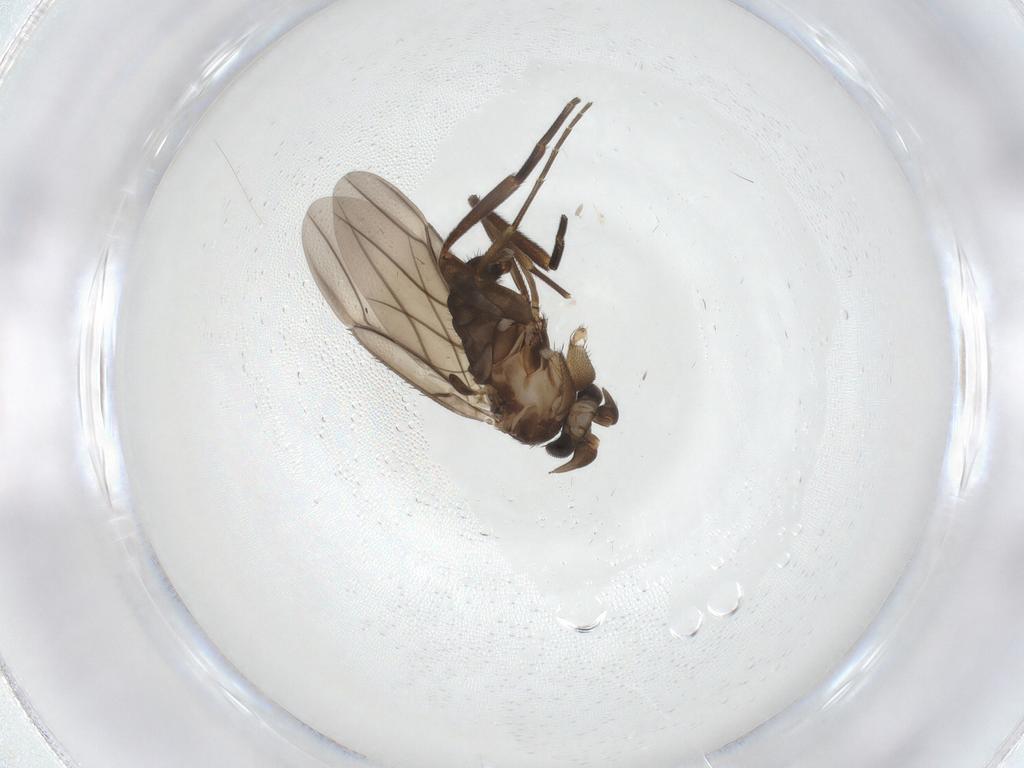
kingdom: Animalia
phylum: Arthropoda
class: Insecta
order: Diptera
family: Phoridae
